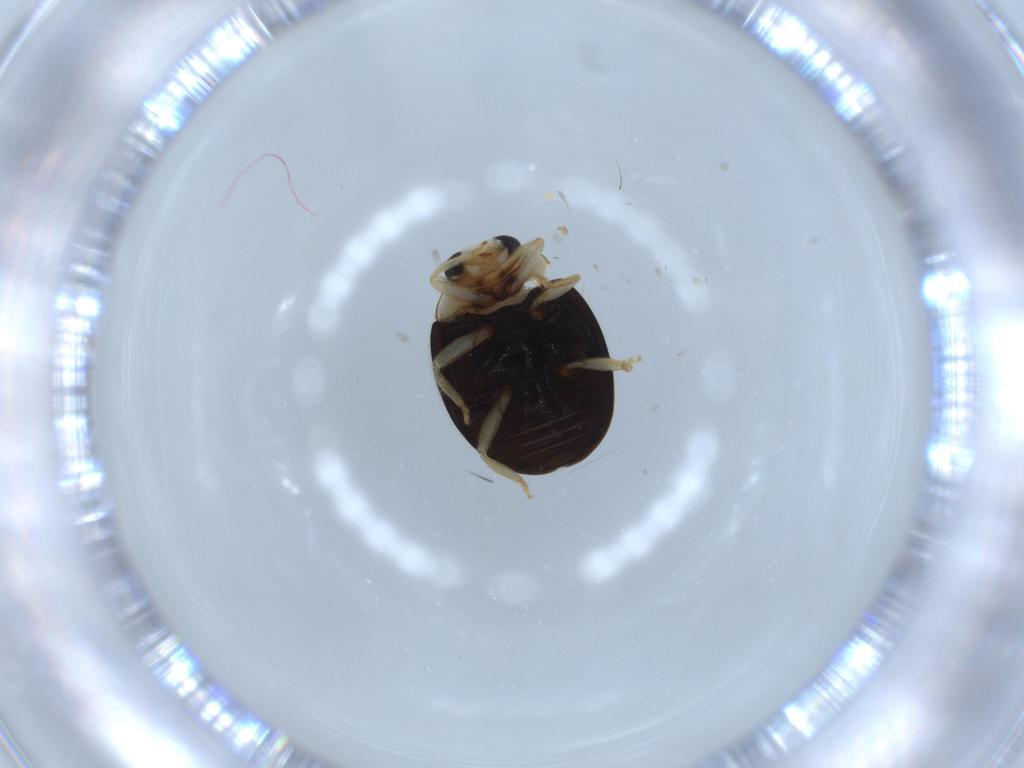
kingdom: Animalia
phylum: Arthropoda
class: Insecta
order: Coleoptera
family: Coccinellidae
